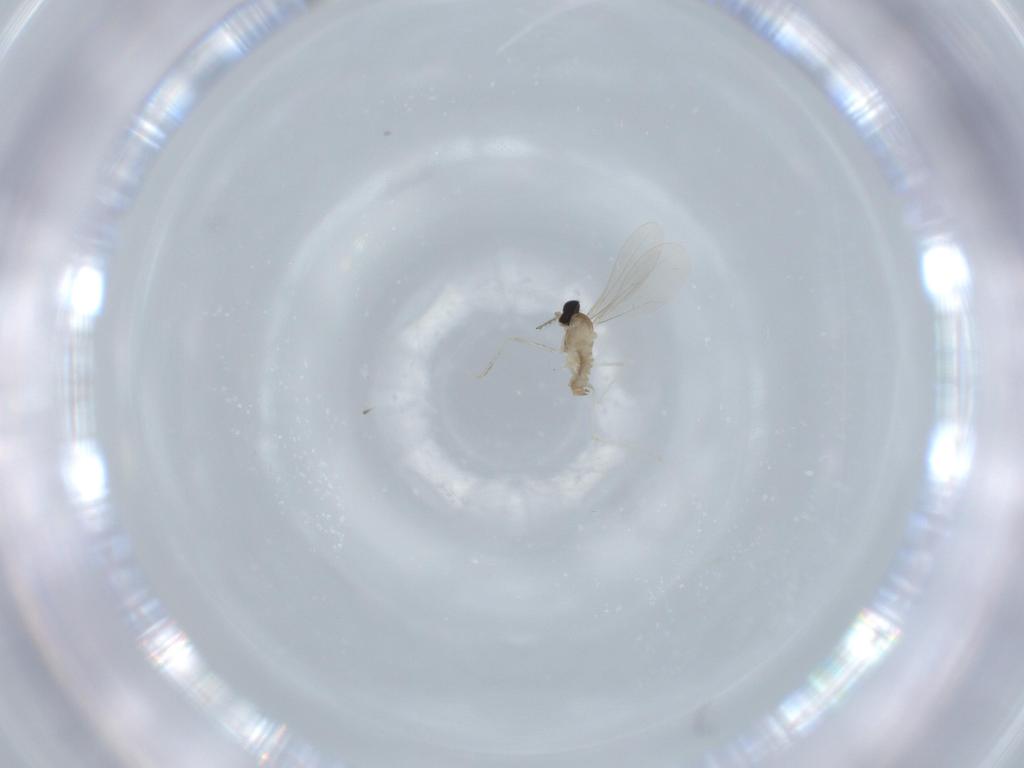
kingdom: Animalia
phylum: Arthropoda
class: Insecta
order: Diptera
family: Cecidomyiidae
